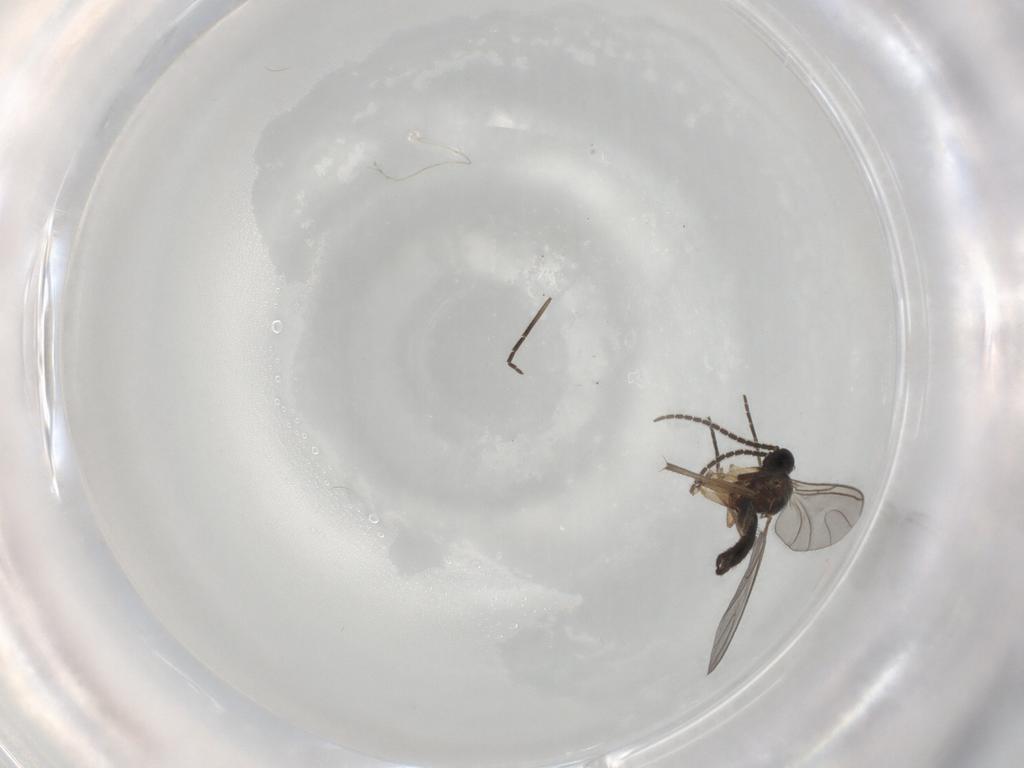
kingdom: Animalia
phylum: Arthropoda
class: Insecta
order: Diptera
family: Sciaridae
